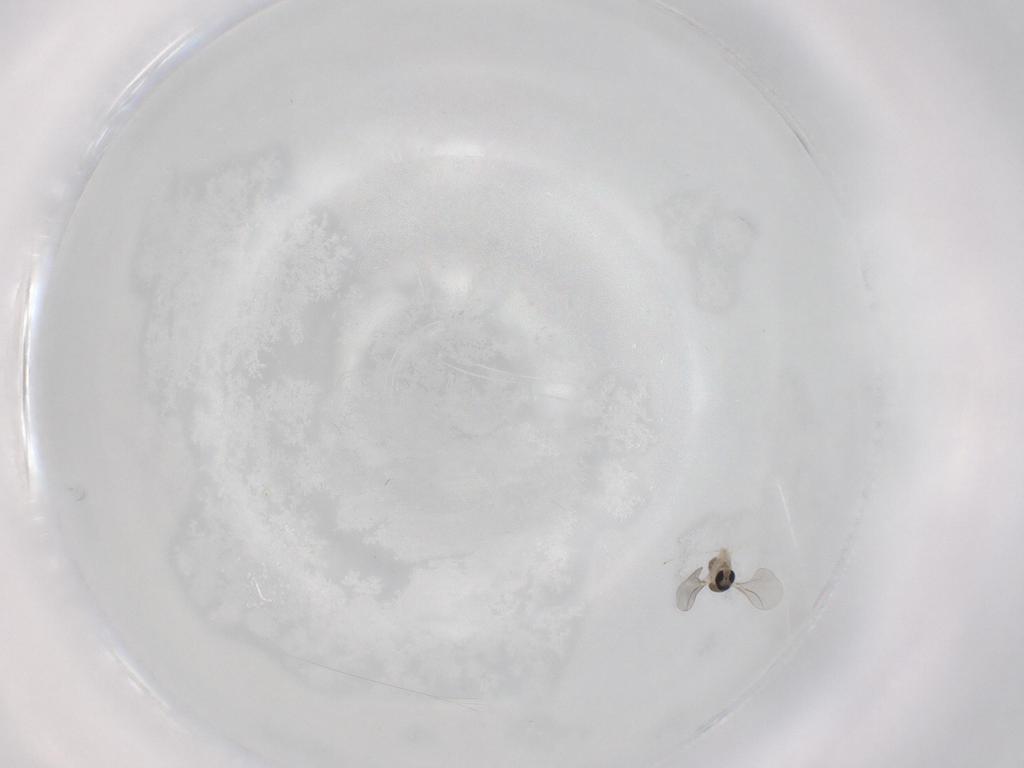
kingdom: Animalia
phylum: Arthropoda
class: Insecta
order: Diptera
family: Cecidomyiidae
